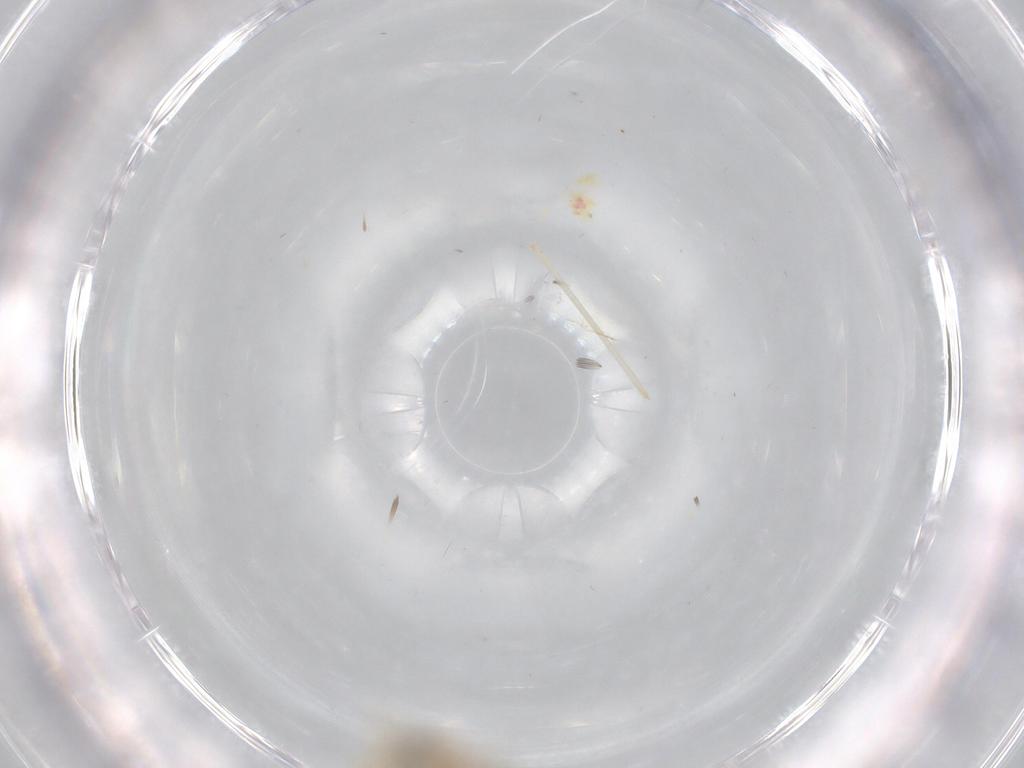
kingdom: Animalia
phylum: Arthropoda
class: Insecta
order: Diptera
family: Cecidomyiidae
